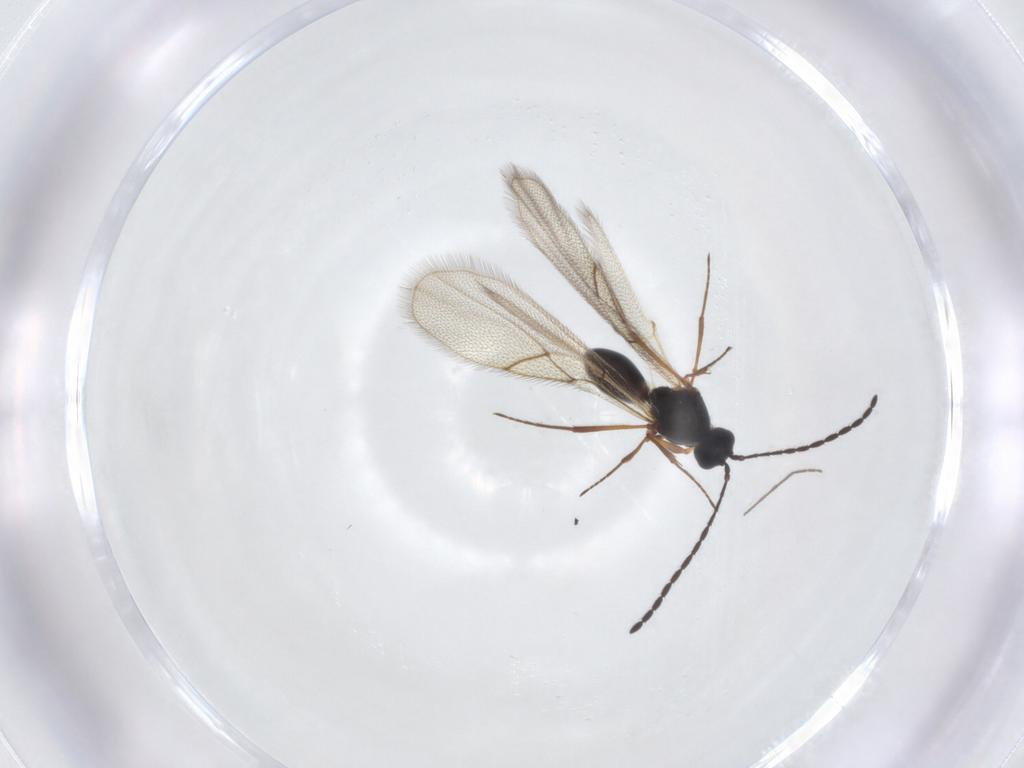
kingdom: Animalia
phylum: Arthropoda
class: Insecta
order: Hymenoptera
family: Figitidae
